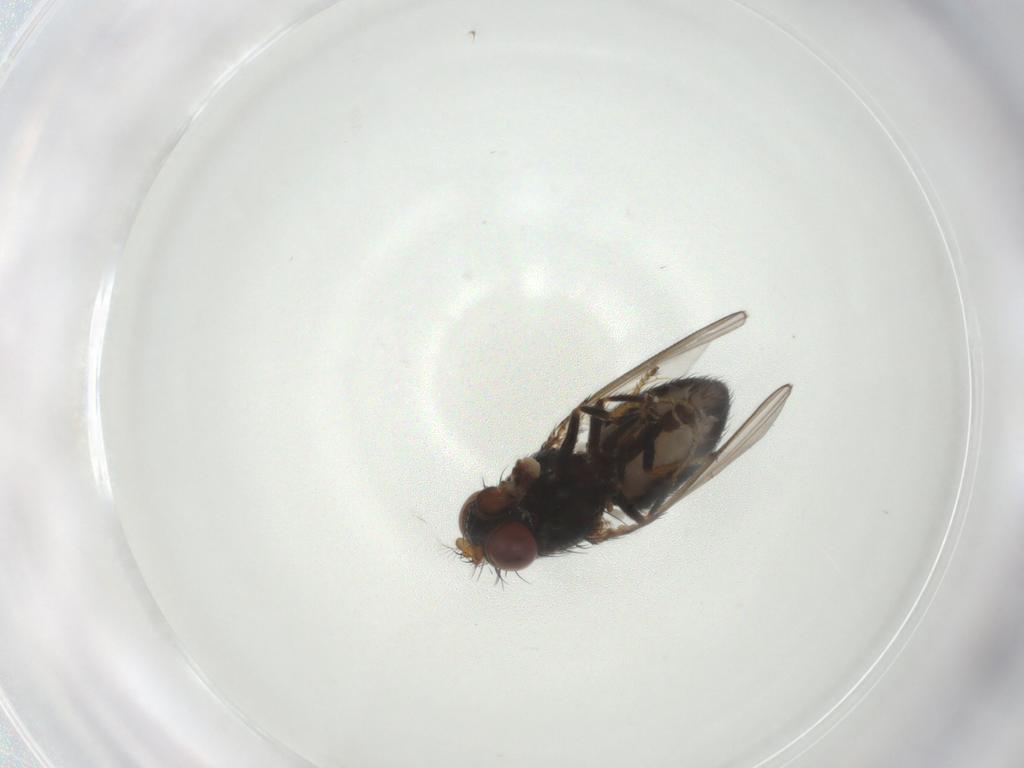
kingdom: Animalia
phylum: Arthropoda
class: Insecta
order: Diptera
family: Ephydridae
